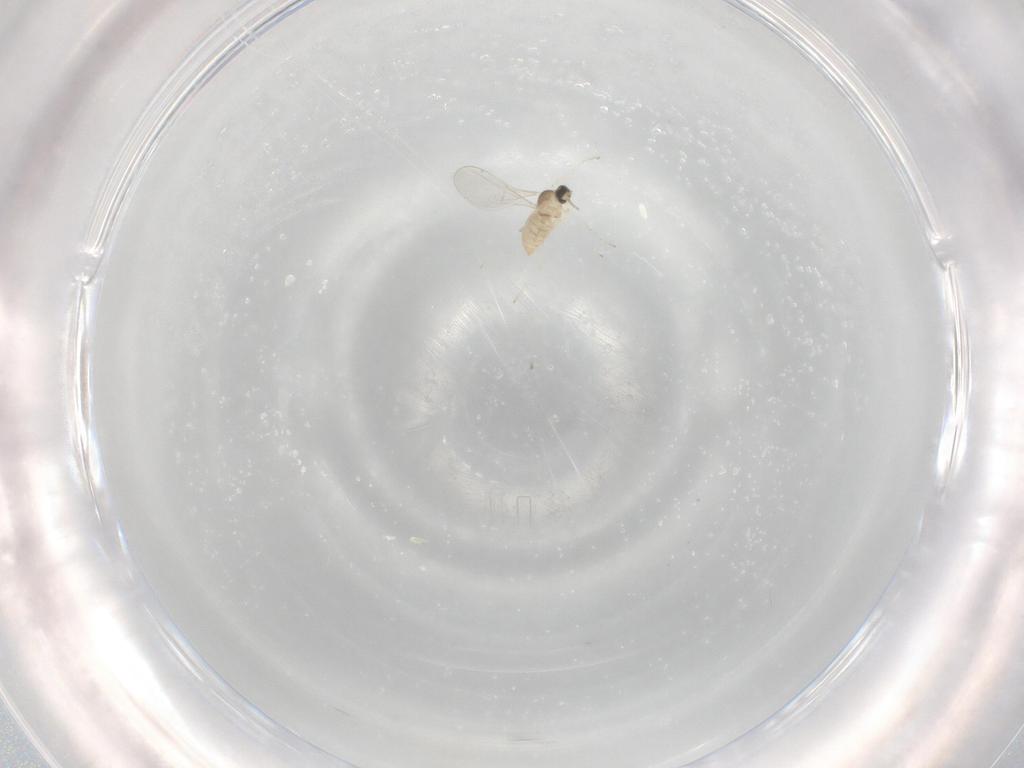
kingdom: Animalia
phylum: Arthropoda
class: Insecta
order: Diptera
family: Cecidomyiidae
